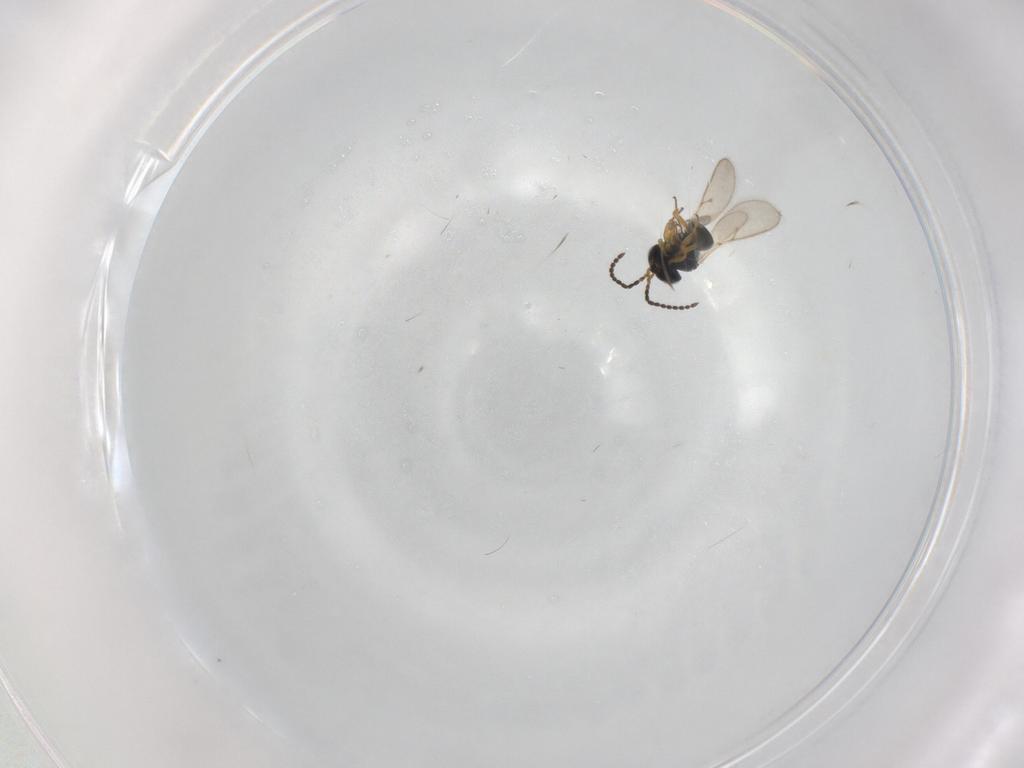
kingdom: Animalia
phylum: Arthropoda
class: Insecta
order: Hymenoptera
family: Scelionidae
